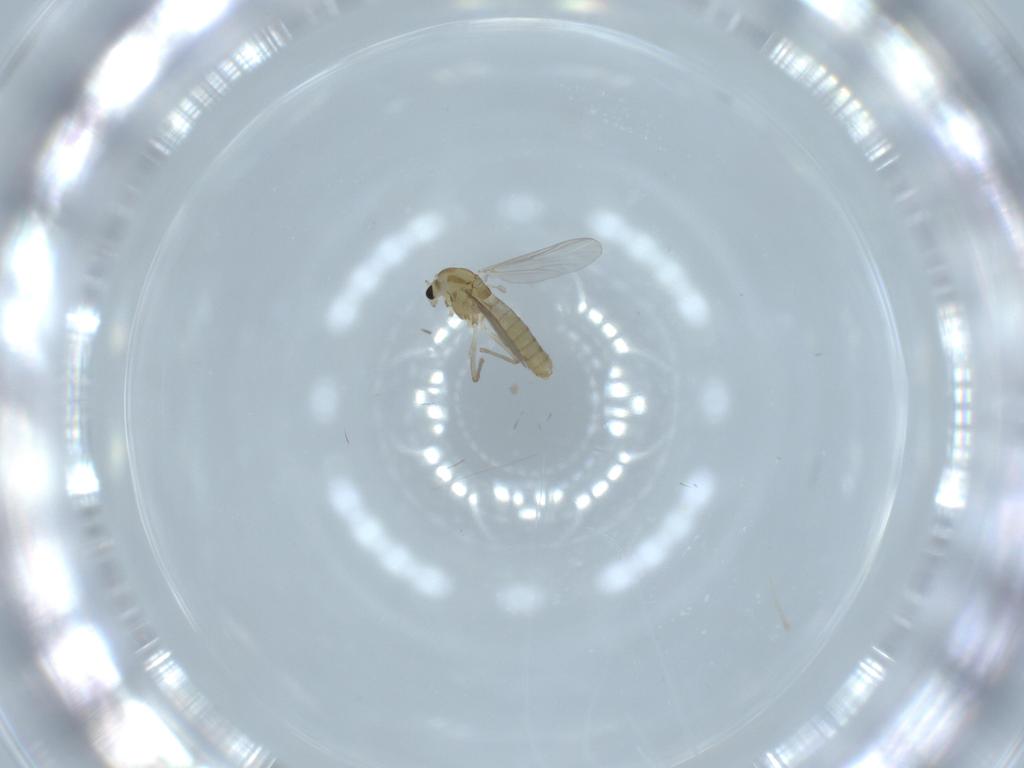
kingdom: Animalia
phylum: Arthropoda
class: Insecta
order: Diptera
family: Chironomidae
